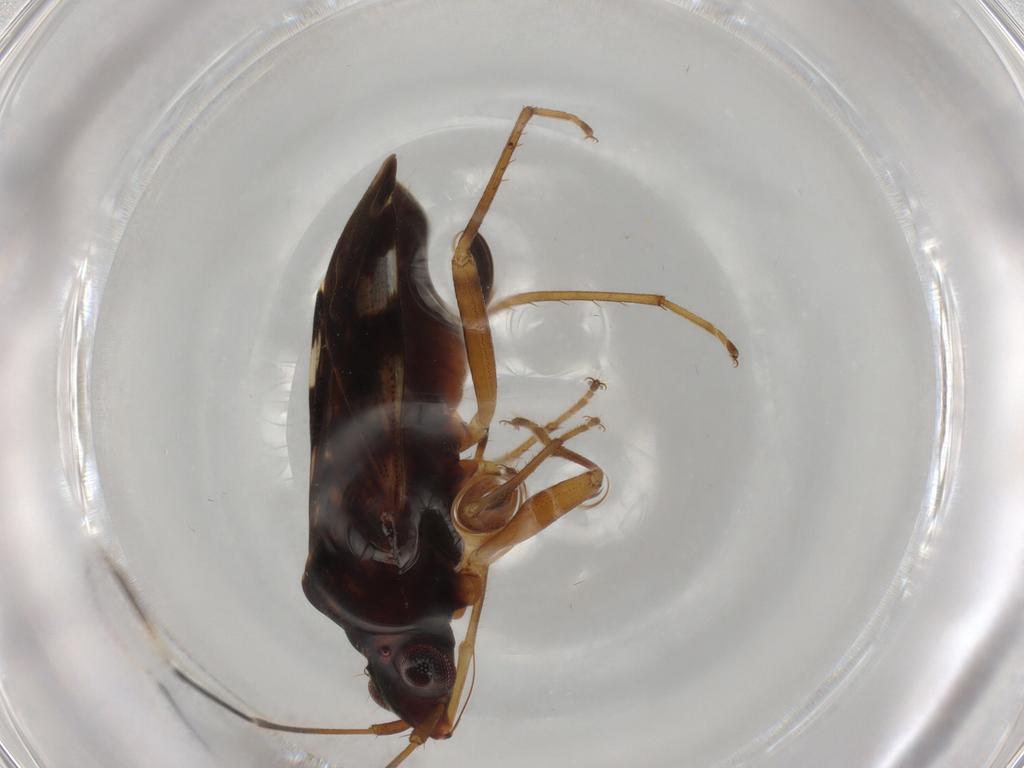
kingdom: Animalia
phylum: Arthropoda
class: Insecta
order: Hemiptera
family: Rhyparochromidae
